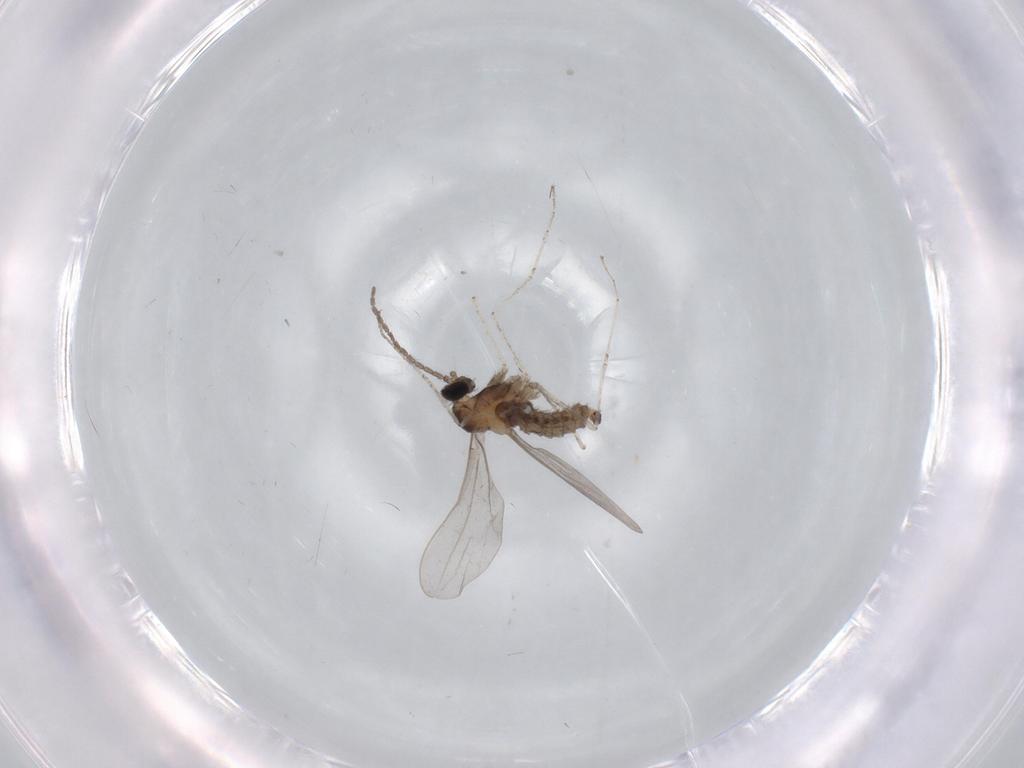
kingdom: Animalia
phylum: Arthropoda
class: Insecta
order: Diptera
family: Cecidomyiidae
